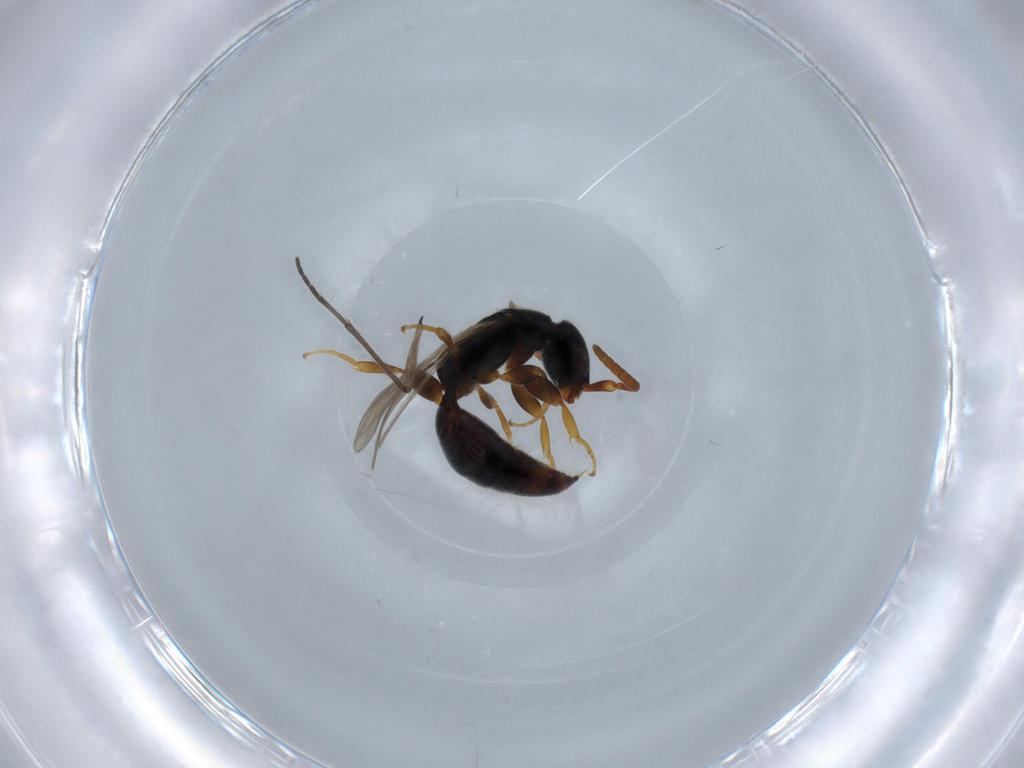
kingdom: Animalia
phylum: Arthropoda
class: Insecta
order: Hymenoptera
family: Bethylidae
